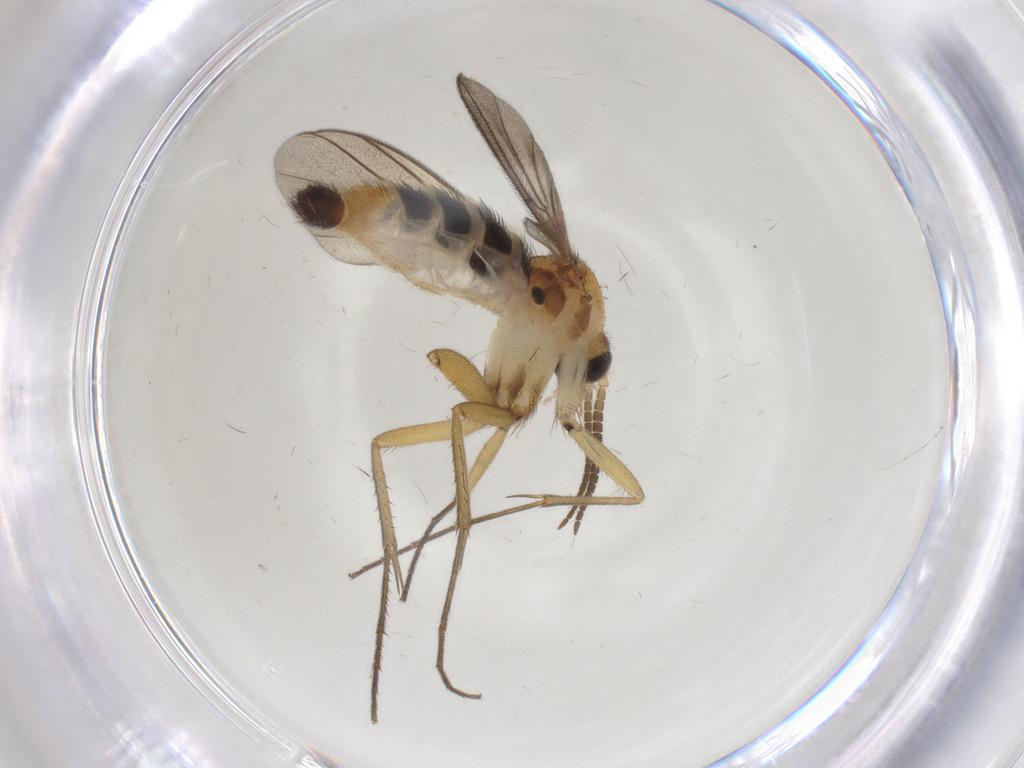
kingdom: Animalia
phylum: Arthropoda
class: Insecta
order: Diptera
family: Mycetophilidae
